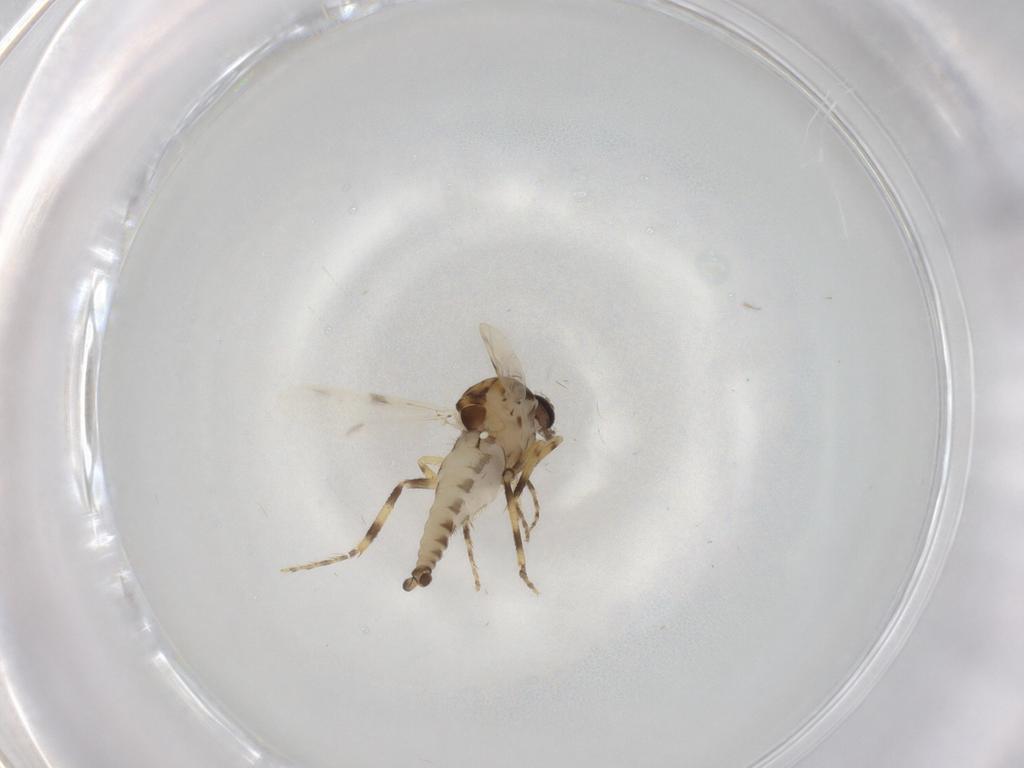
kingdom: Animalia
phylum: Arthropoda
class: Insecta
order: Diptera
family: Ceratopogonidae
